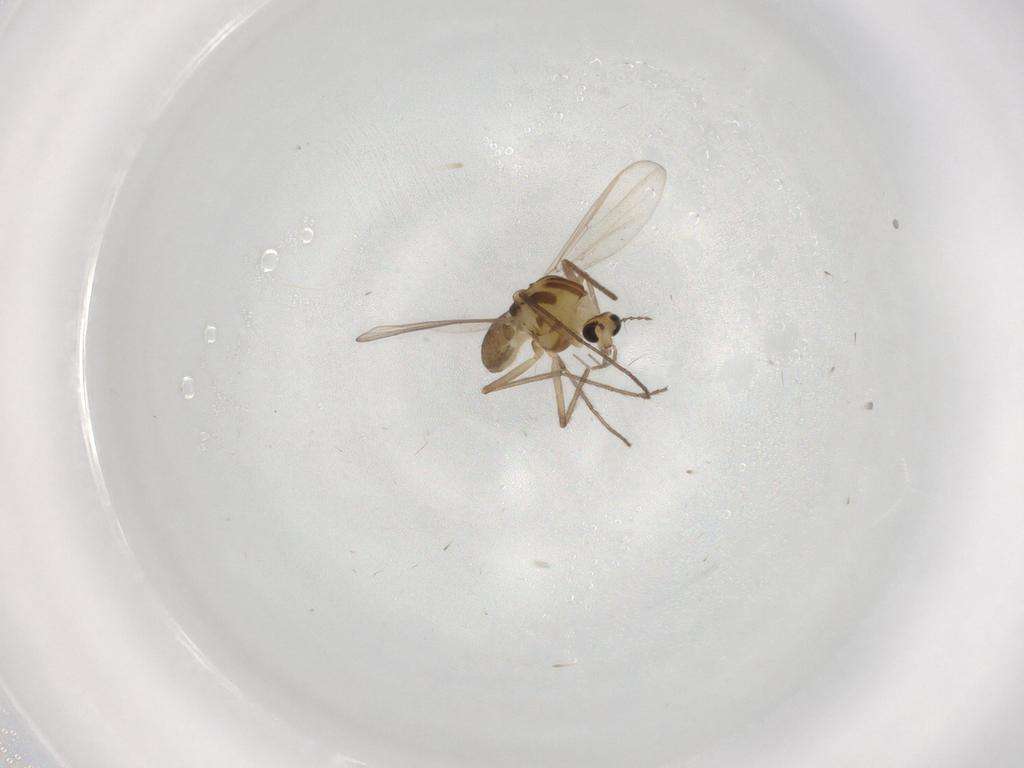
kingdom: Animalia
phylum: Arthropoda
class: Insecta
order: Diptera
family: Chironomidae
